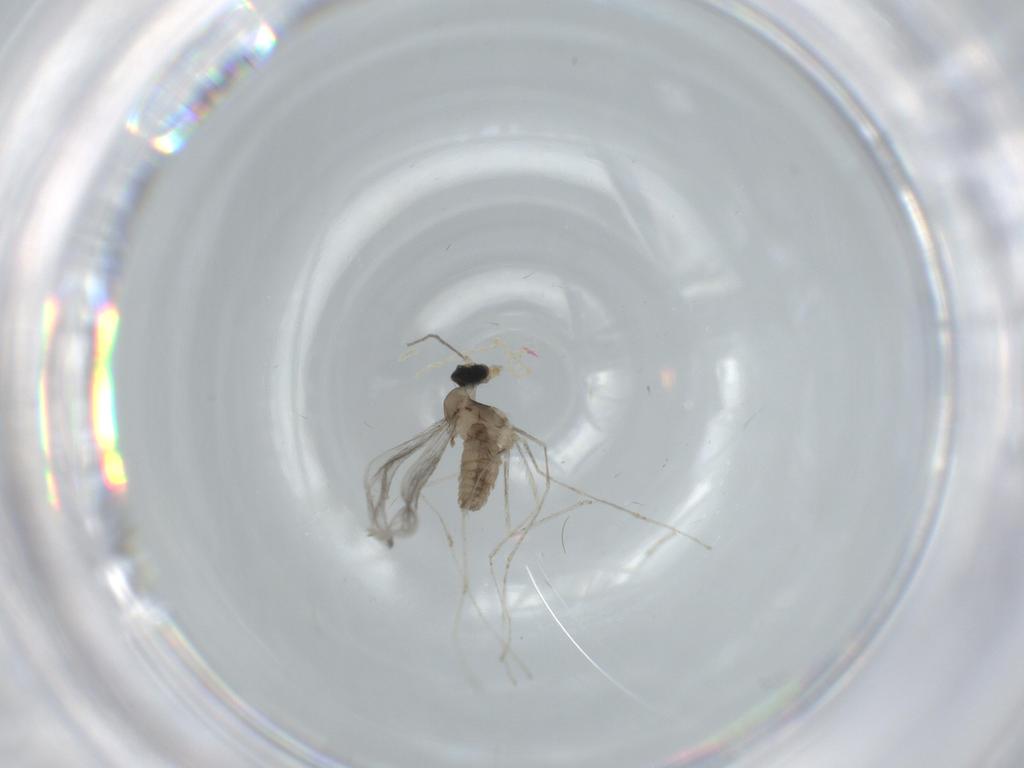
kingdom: Animalia
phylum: Arthropoda
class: Insecta
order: Diptera
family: Cecidomyiidae
